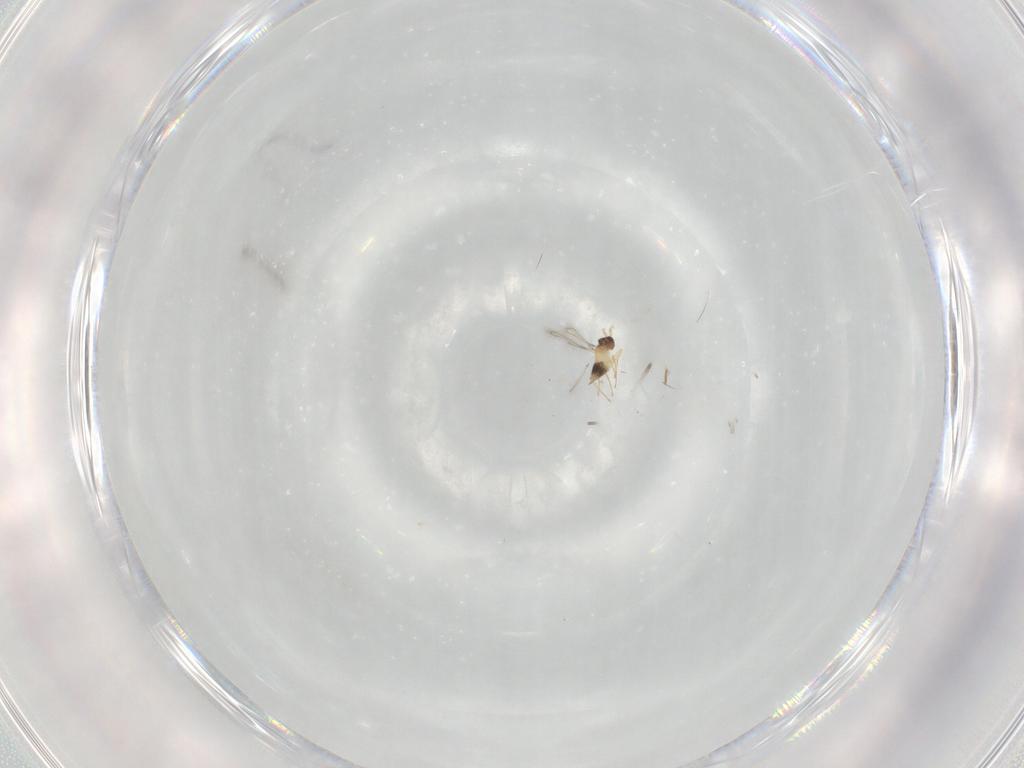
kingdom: Animalia
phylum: Arthropoda
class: Insecta
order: Hymenoptera
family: Mymaridae
